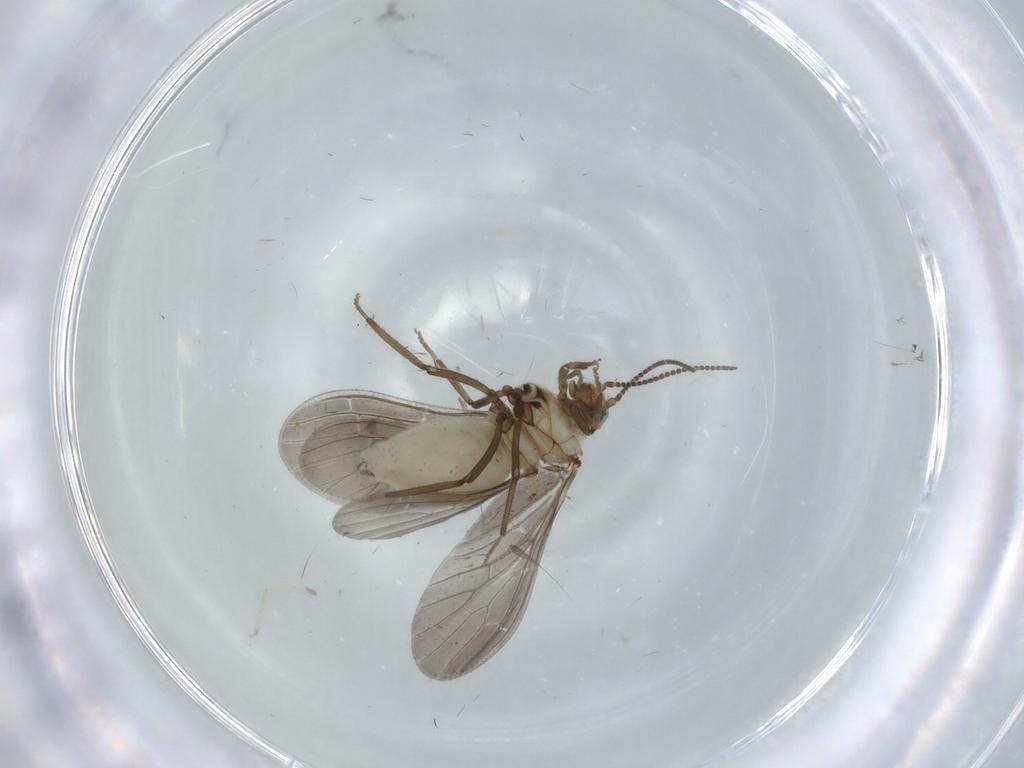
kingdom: Animalia
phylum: Arthropoda
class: Insecta
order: Neuroptera
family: Coniopterygidae
